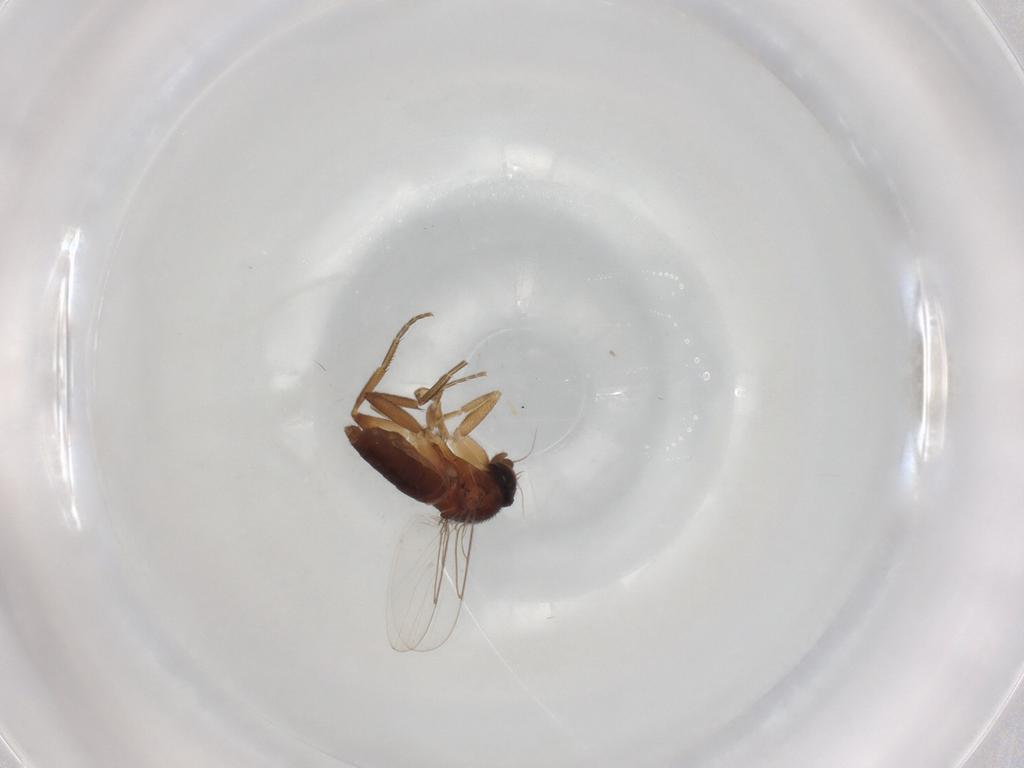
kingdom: Animalia
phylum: Arthropoda
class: Insecta
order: Diptera
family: Phoridae
